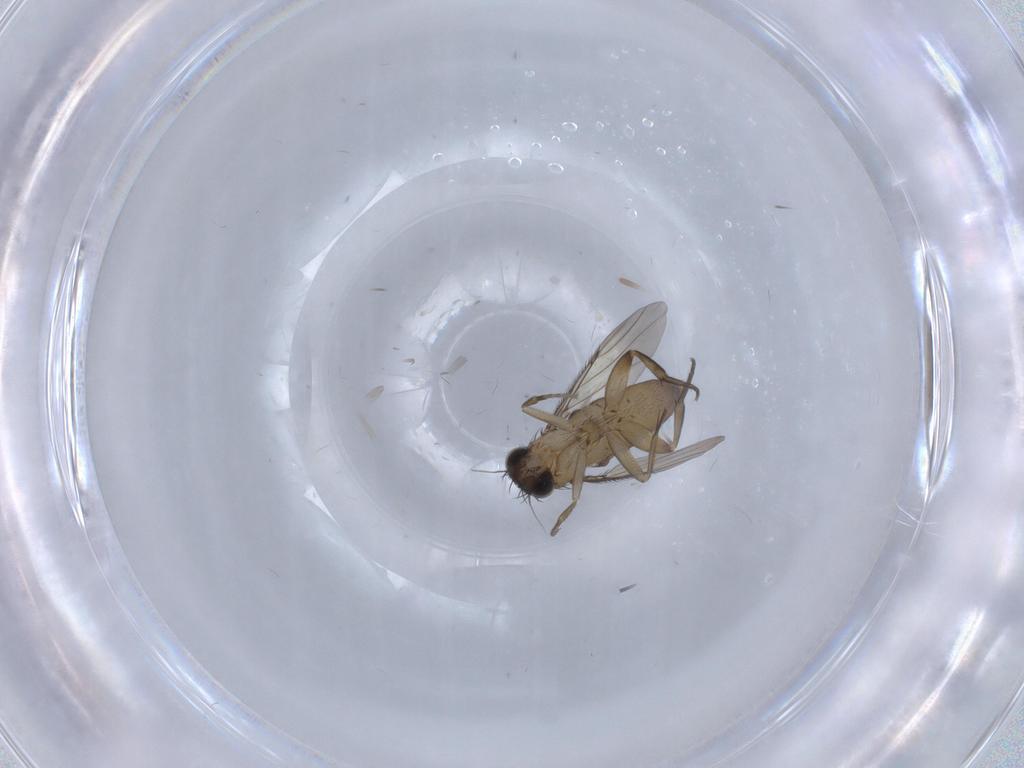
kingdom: Animalia
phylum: Arthropoda
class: Insecta
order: Diptera
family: Phoridae
